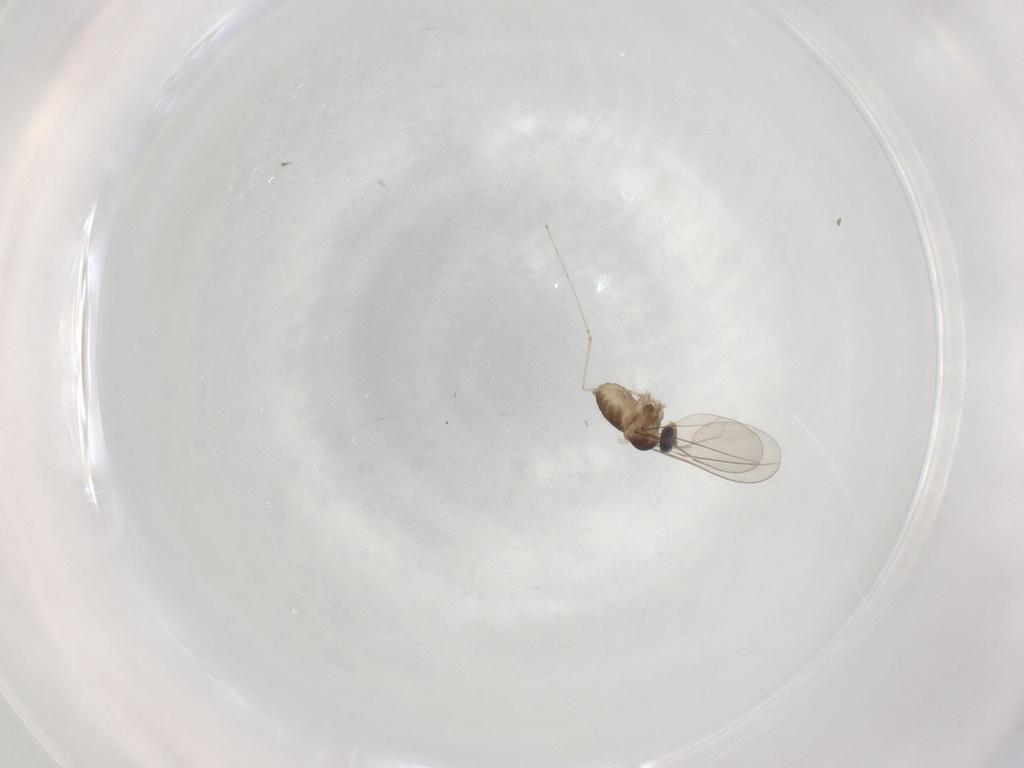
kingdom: Animalia
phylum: Arthropoda
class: Insecta
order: Diptera
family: Cecidomyiidae
